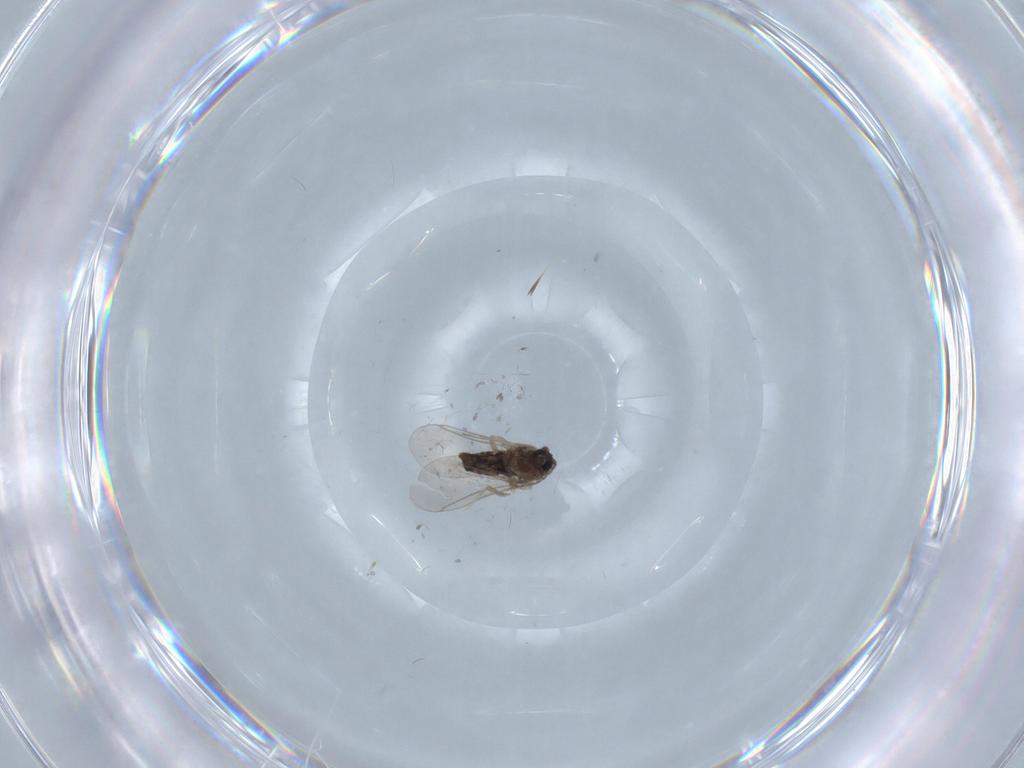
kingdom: Animalia
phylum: Arthropoda
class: Insecta
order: Diptera
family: Cecidomyiidae
